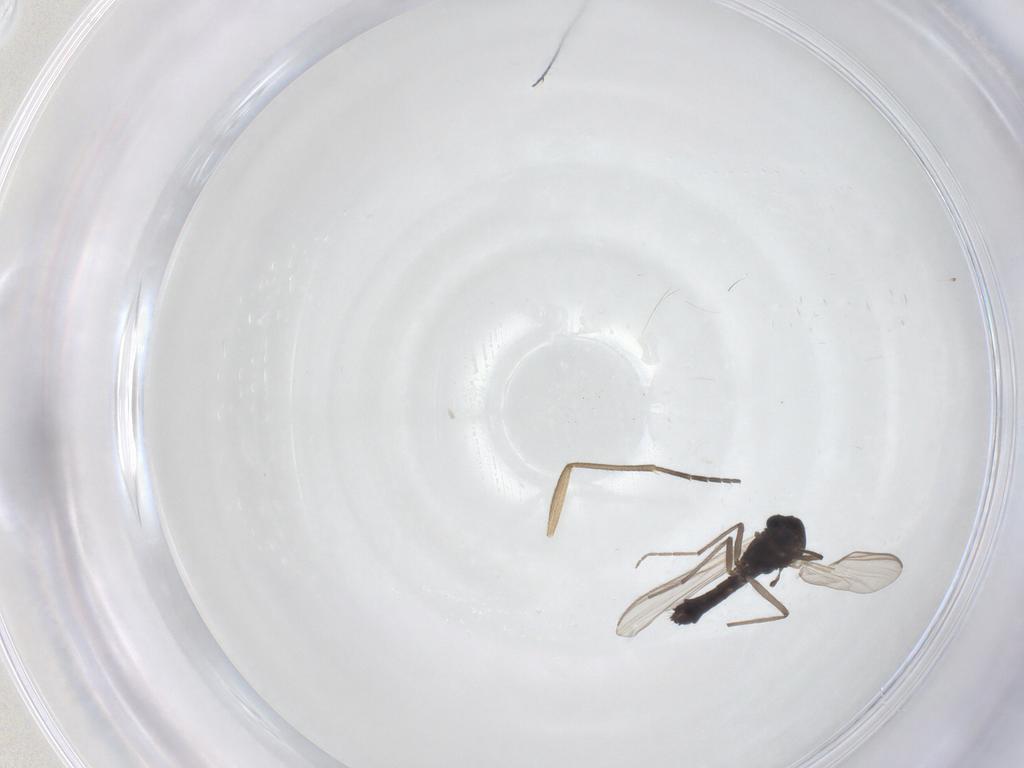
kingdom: Animalia
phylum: Arthropoda
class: Insecta
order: Diptera
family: Sciaridae
